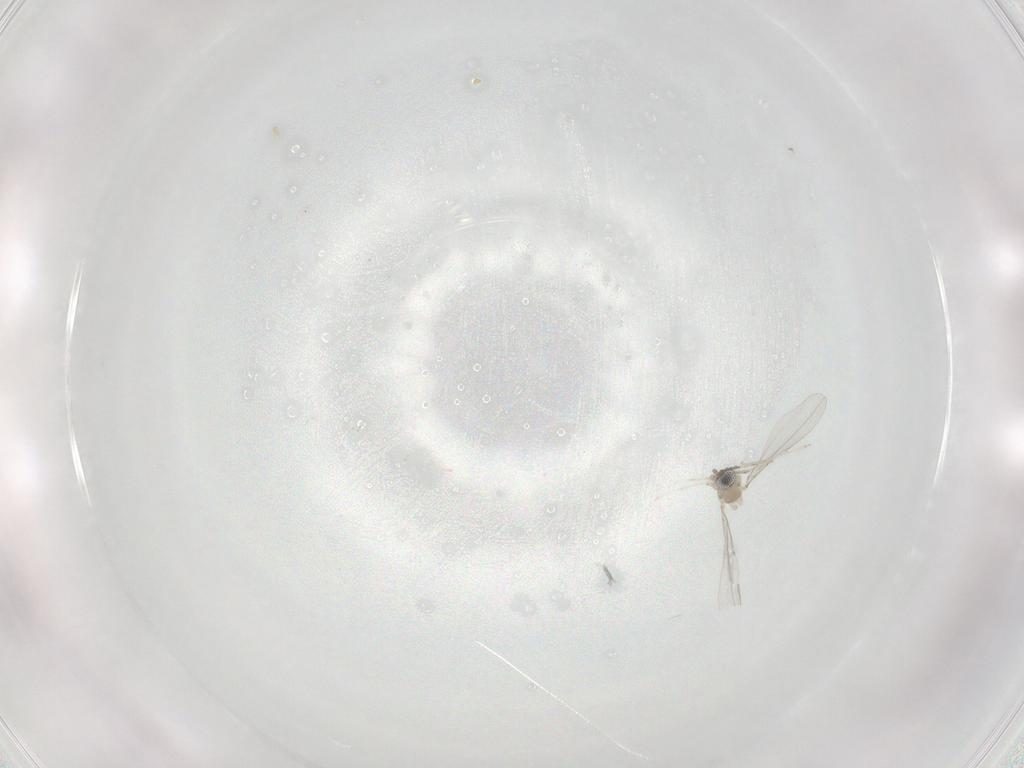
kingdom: Animalia
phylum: Arthropoda
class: Insecta
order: Diptera
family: Cecidomyiidae
